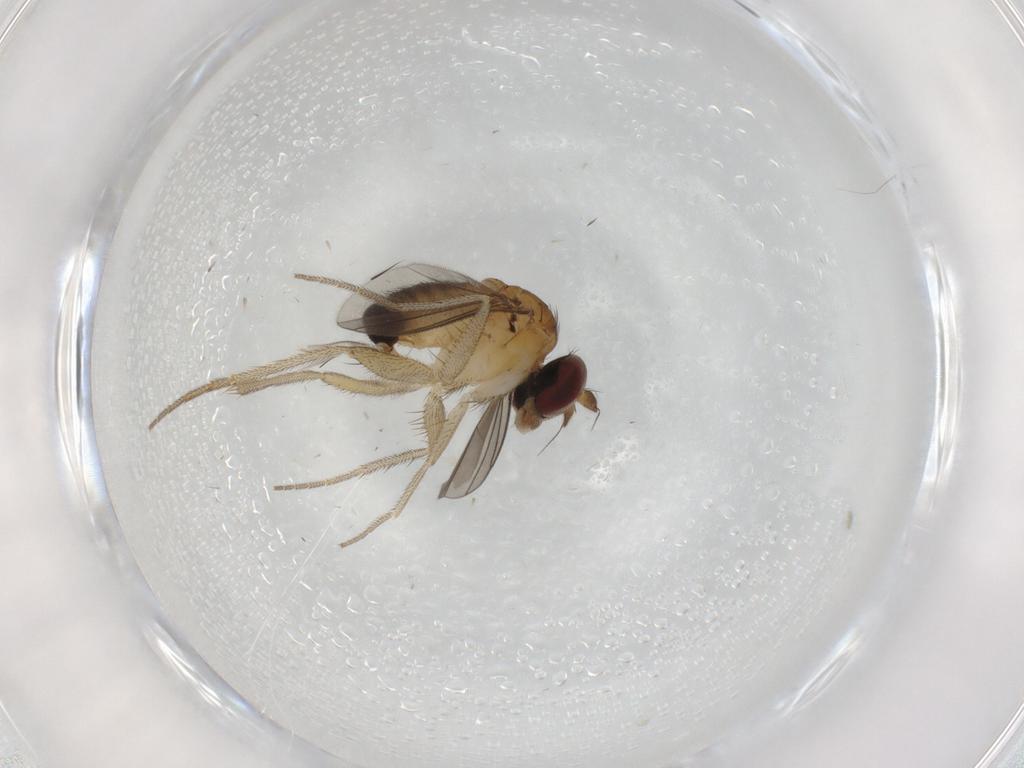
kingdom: Animalia
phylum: Arthropoda
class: Insecta
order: Diptera
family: Dolichopodidae
